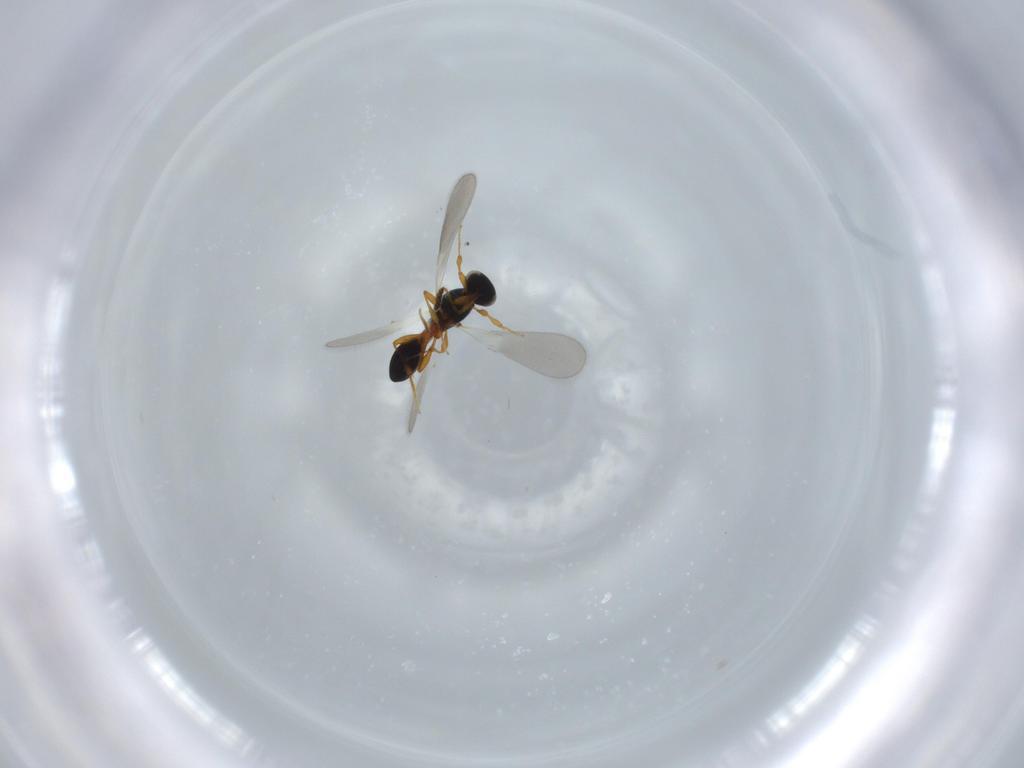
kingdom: Animalia
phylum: Arthropoda
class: Insecta
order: Hymenoptera
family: Platygastridae
